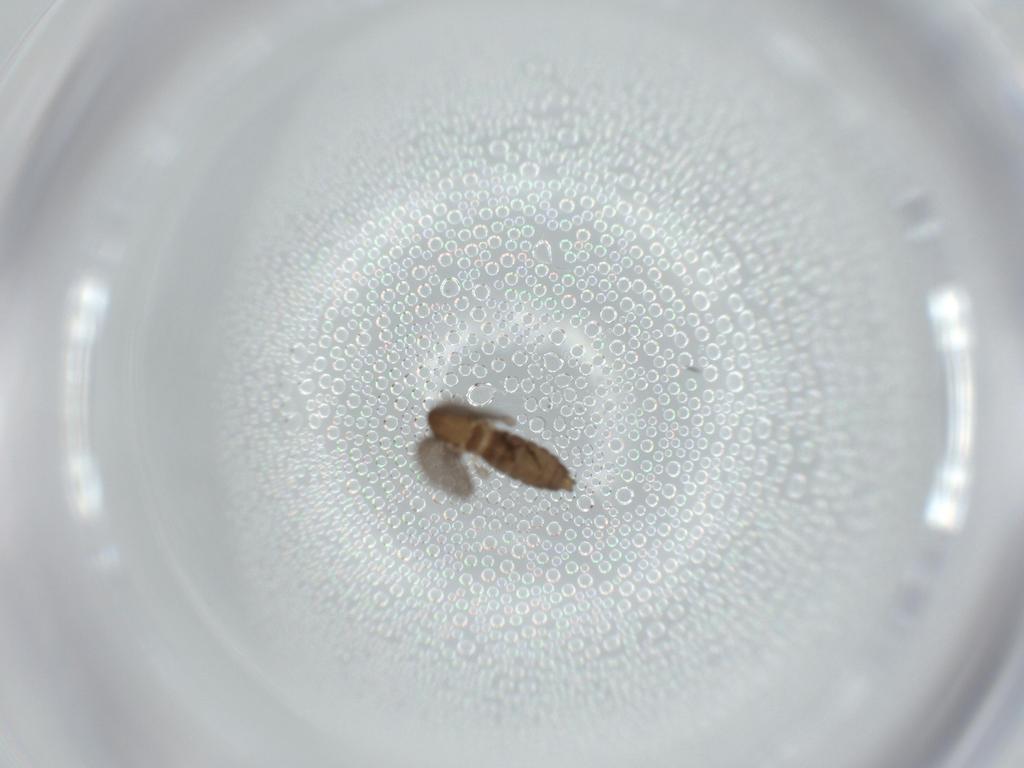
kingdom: Animalia
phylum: Arthropoda
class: Insecta
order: Diptera
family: Psychodidae
